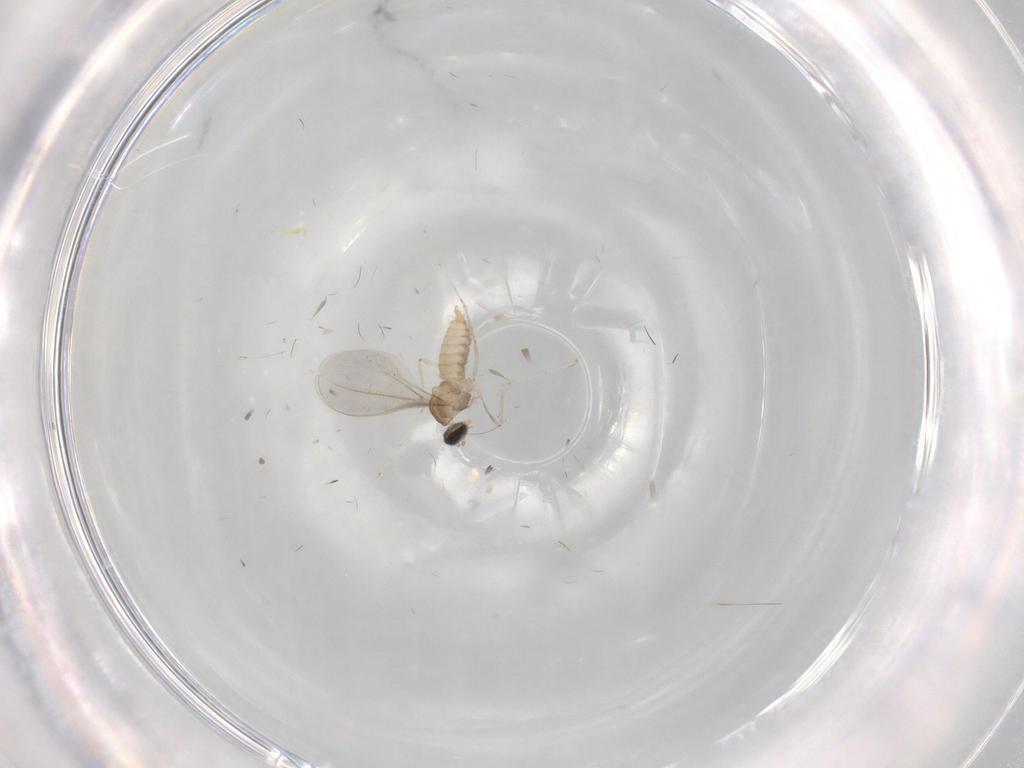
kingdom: Animalia
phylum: Arthropoda
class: Insecta
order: Diptera
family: Cecidomyiidae
